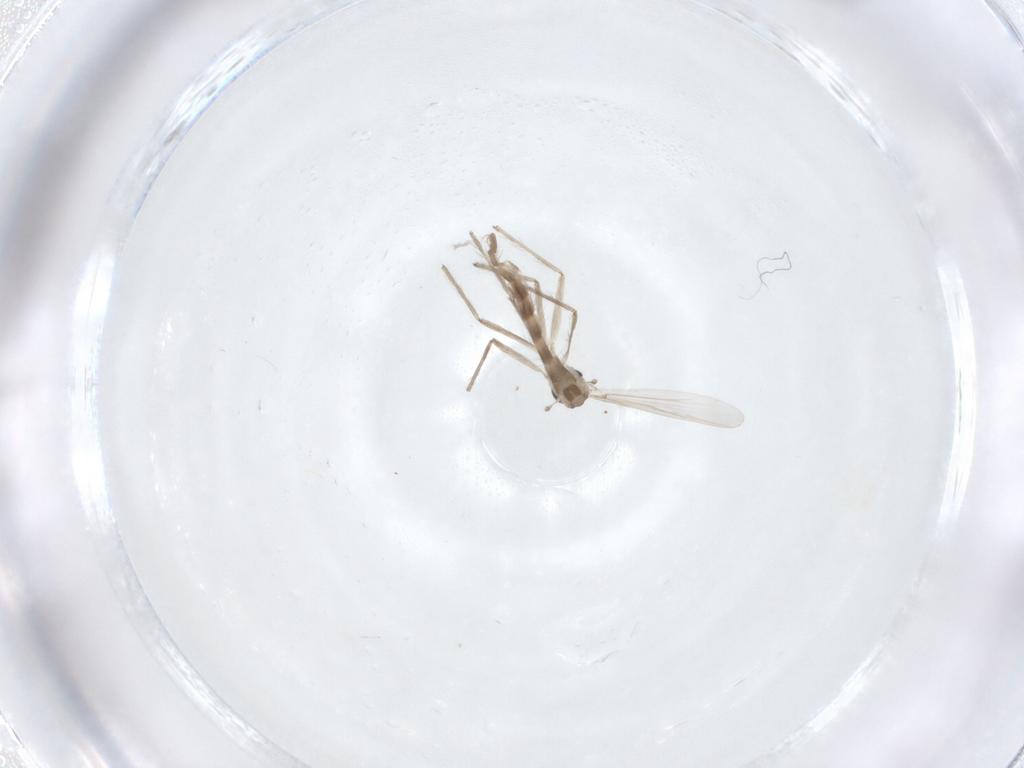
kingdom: Animalia
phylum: Arthropoda
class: Insecta
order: Diptera
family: Chironomidae
